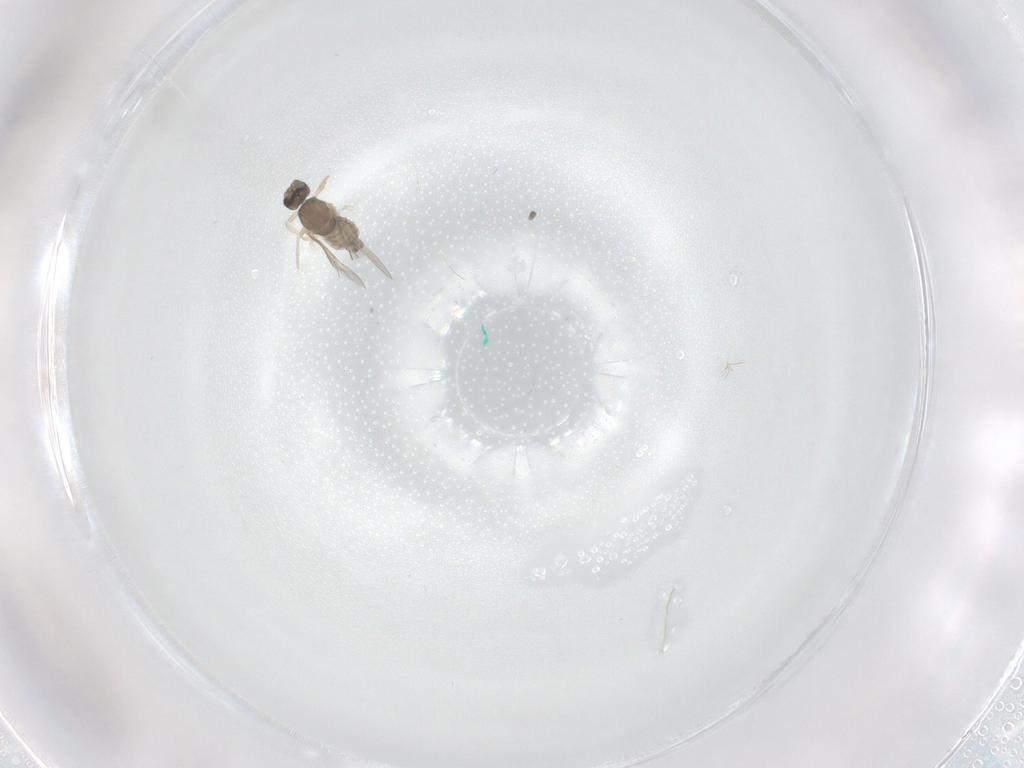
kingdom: Animalia
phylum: Arthropoda
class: Insecta
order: Diptera
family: Cecidomyiidae
